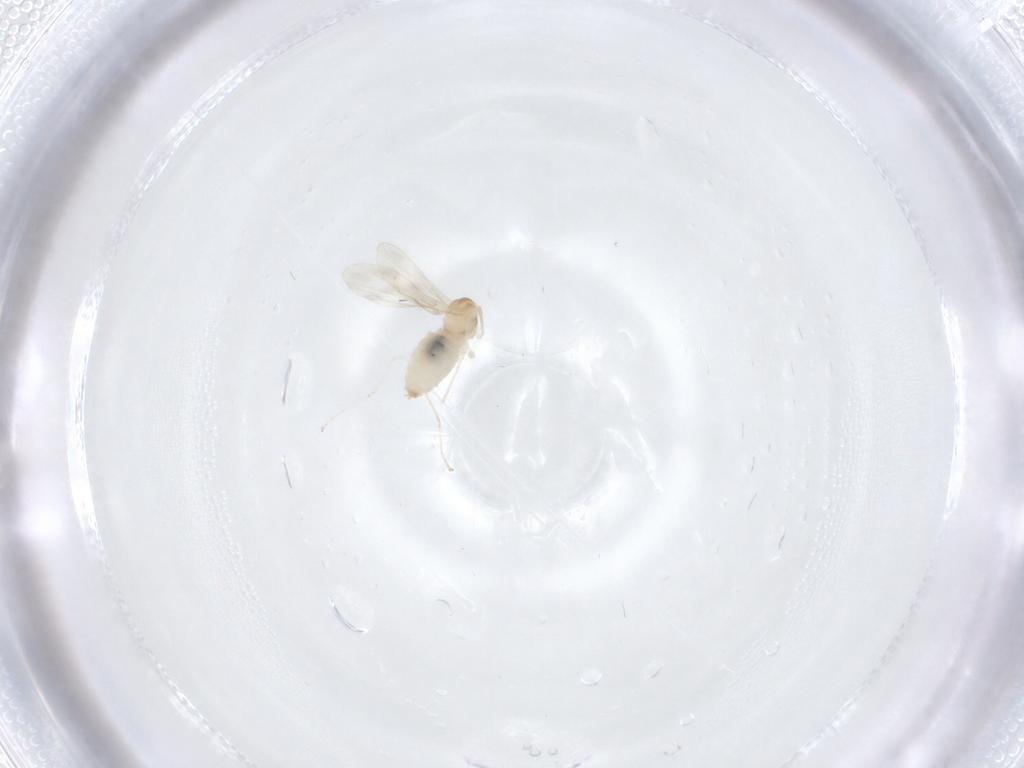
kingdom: Animalia
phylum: Arthropoda
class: Insecta
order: Diptera
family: Cecidomyiidae
